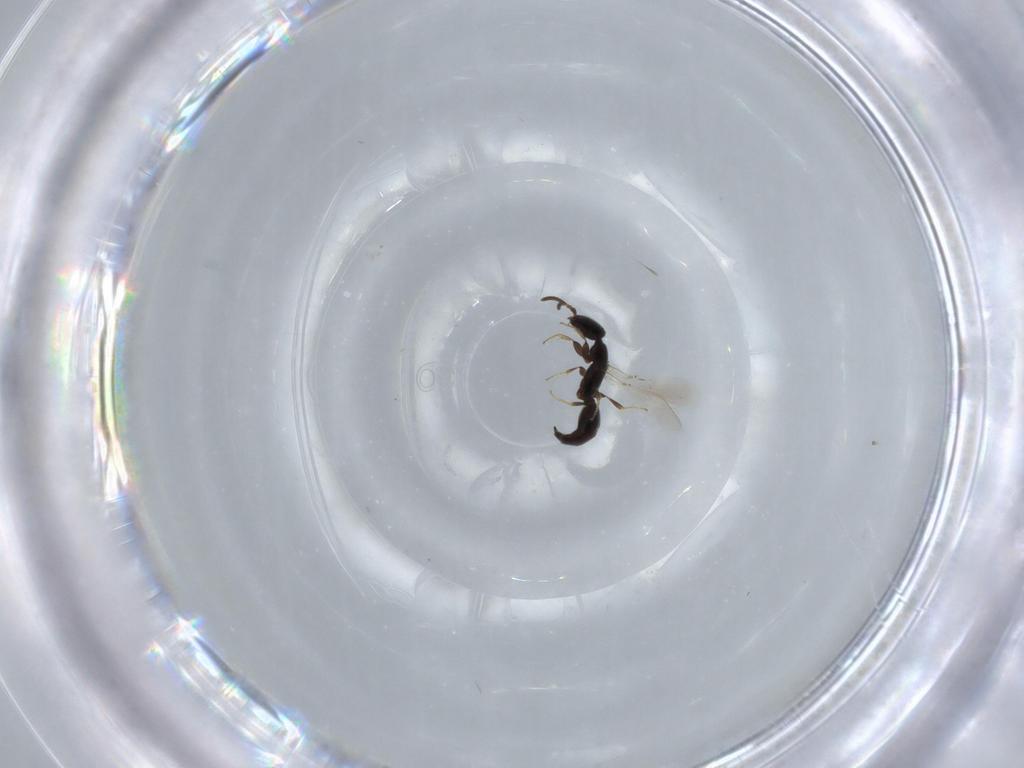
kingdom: Animalia
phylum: Arthropoda
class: Insecta
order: Hymenoptera
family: Bethylidae
